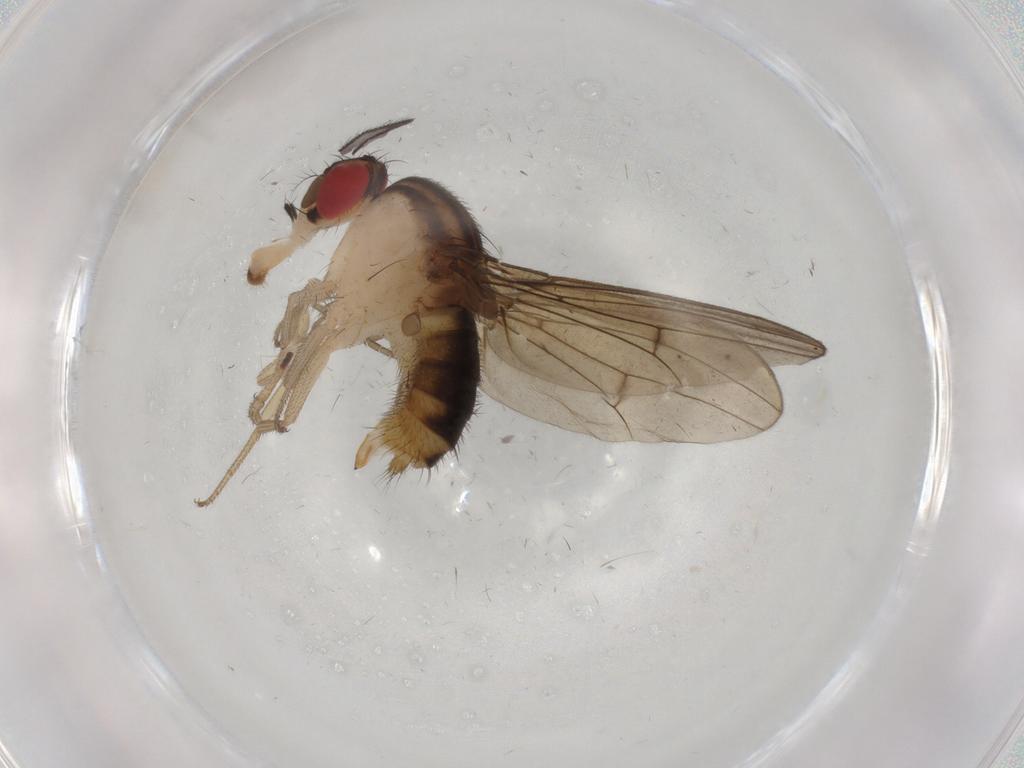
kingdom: Animalia
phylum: Arthropoda
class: Insecta
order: Diptera
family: Drosophilidae
